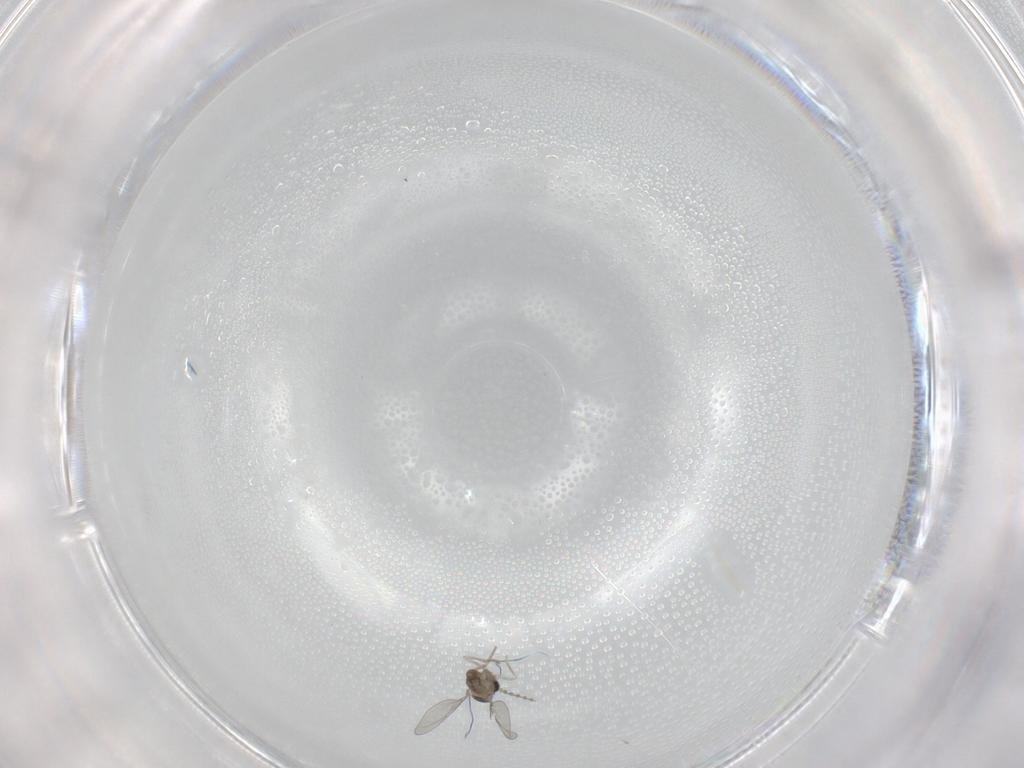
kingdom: Animalia
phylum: Arthropoda
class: Insecta
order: Diptera
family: Cecidomyiidae
